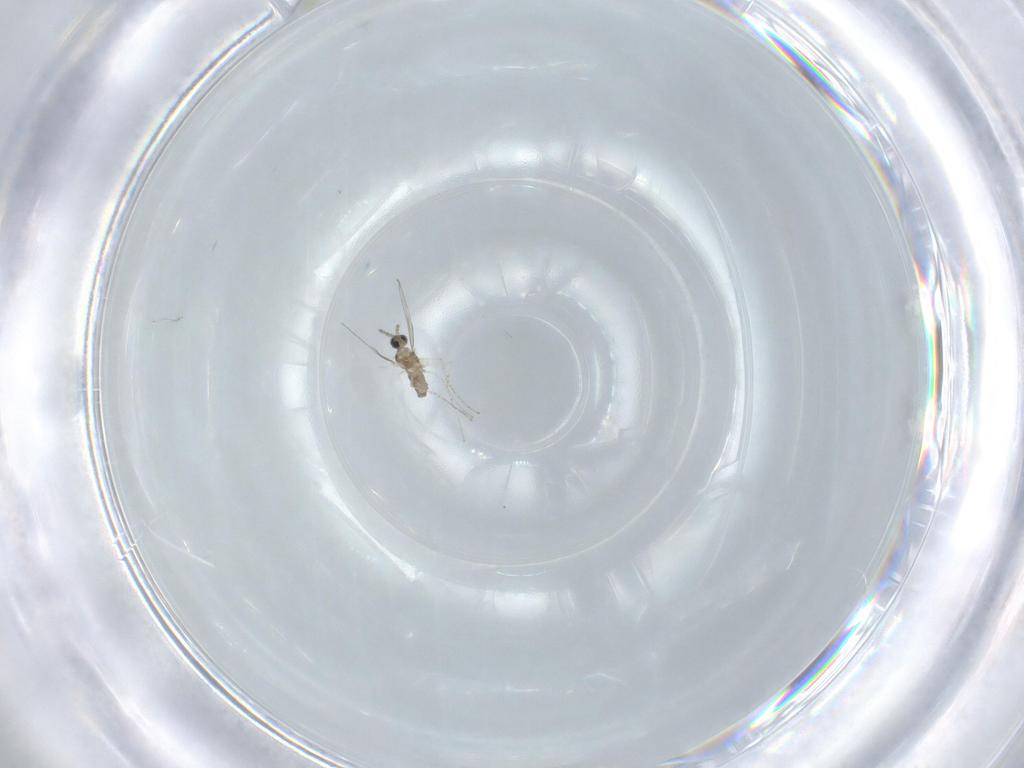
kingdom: Animalia
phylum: Arthropoda
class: Insecta
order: Diptera
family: Cecidomyiidae
